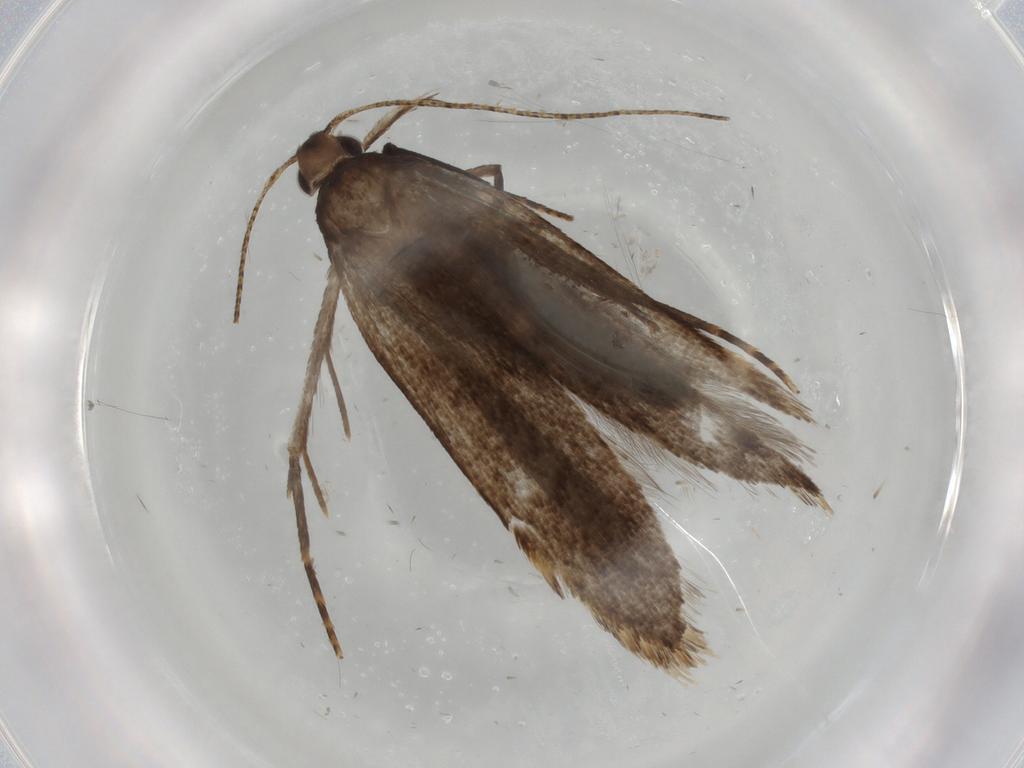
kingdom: Animalia
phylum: Arthropoda
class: Insecta
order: Lepidoptera
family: Gelechiidae
